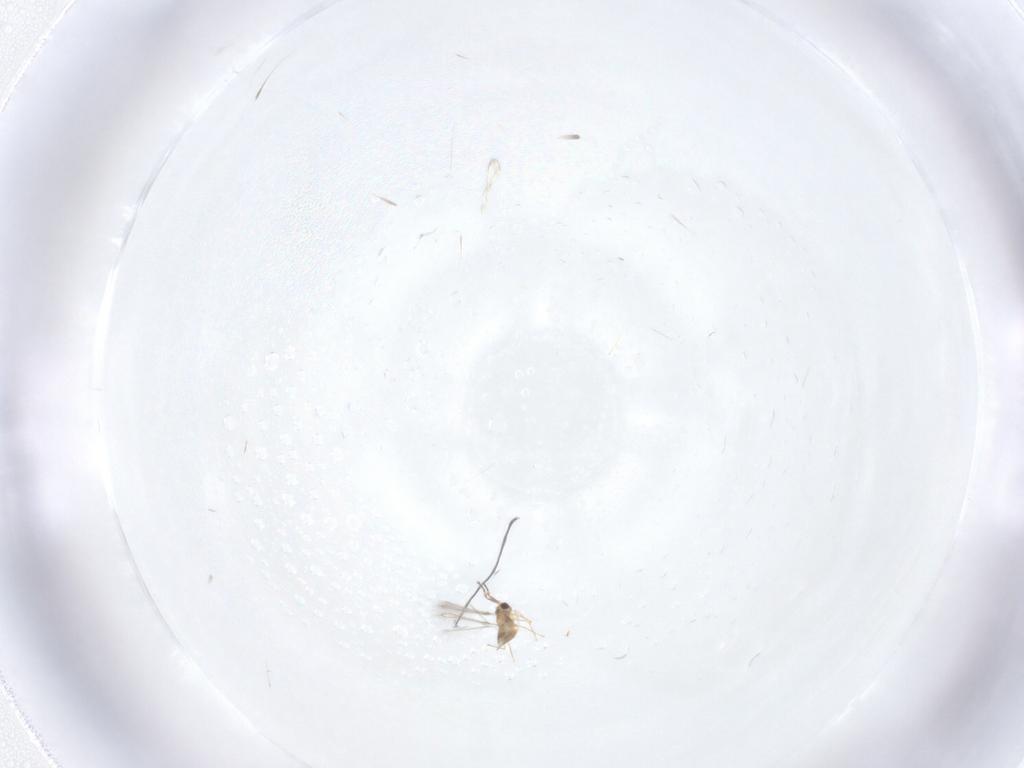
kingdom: Animalia
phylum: Arthropoda
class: Insecta
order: Hymenoptera
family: Mymaridae
